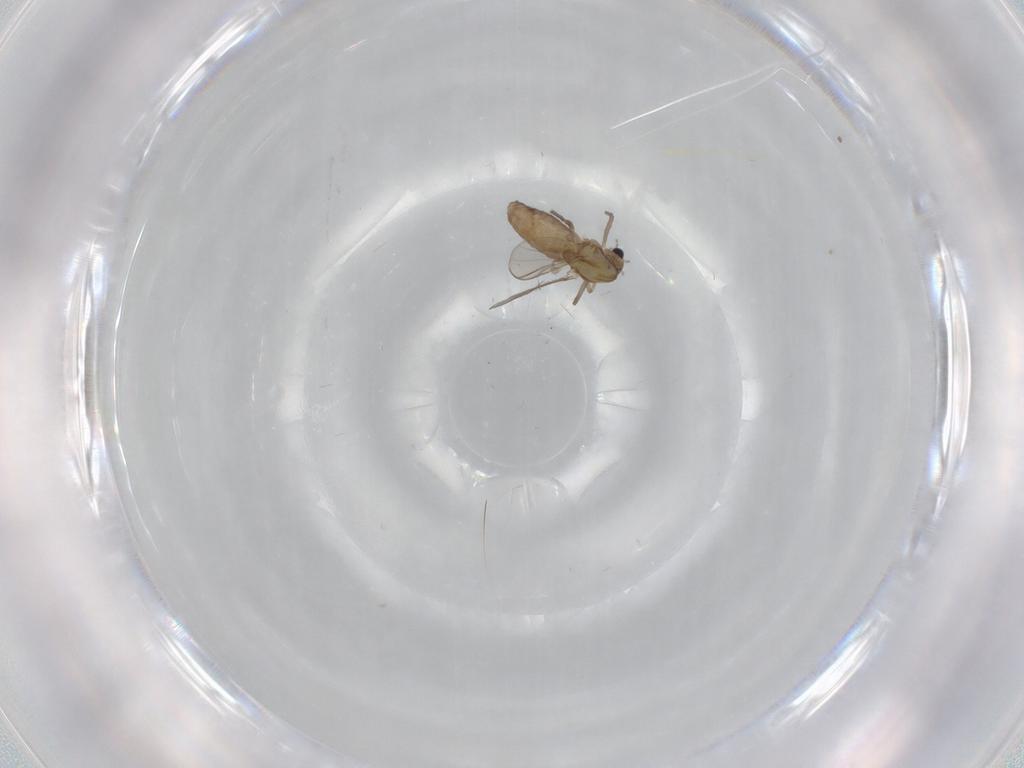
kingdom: Animalia
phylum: Arthropoda
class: Insecta
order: Diptera
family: Chironomidae
